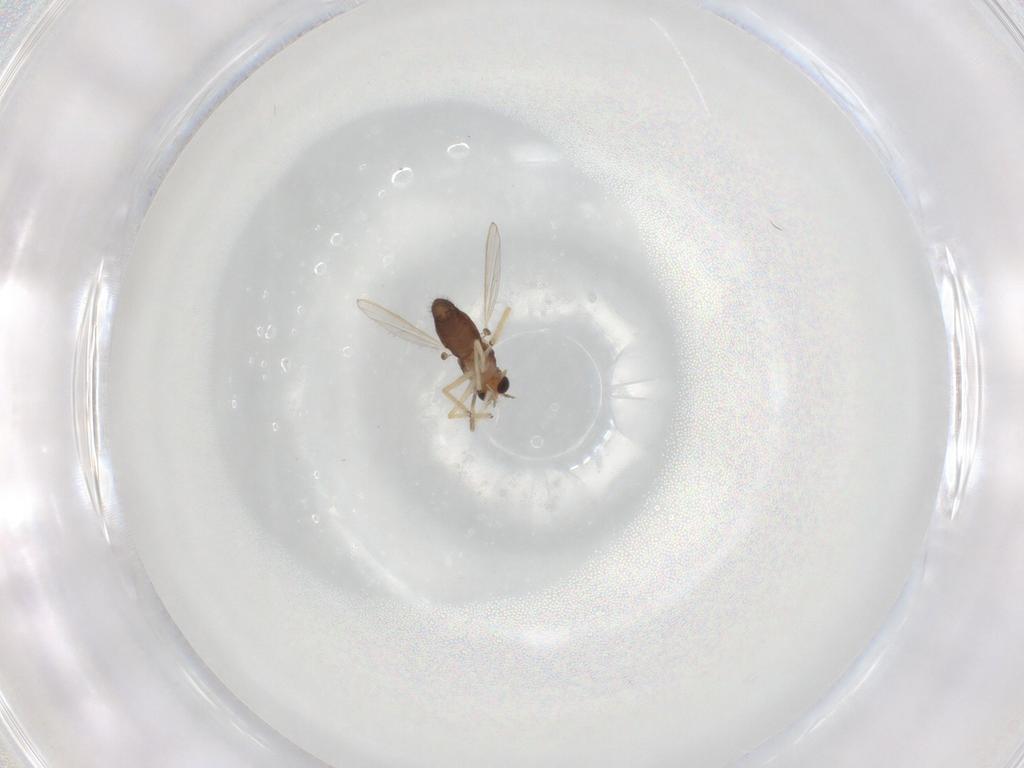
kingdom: Animalia
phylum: Arthropoda
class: Insecta
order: Diptera
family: Chironomidae
